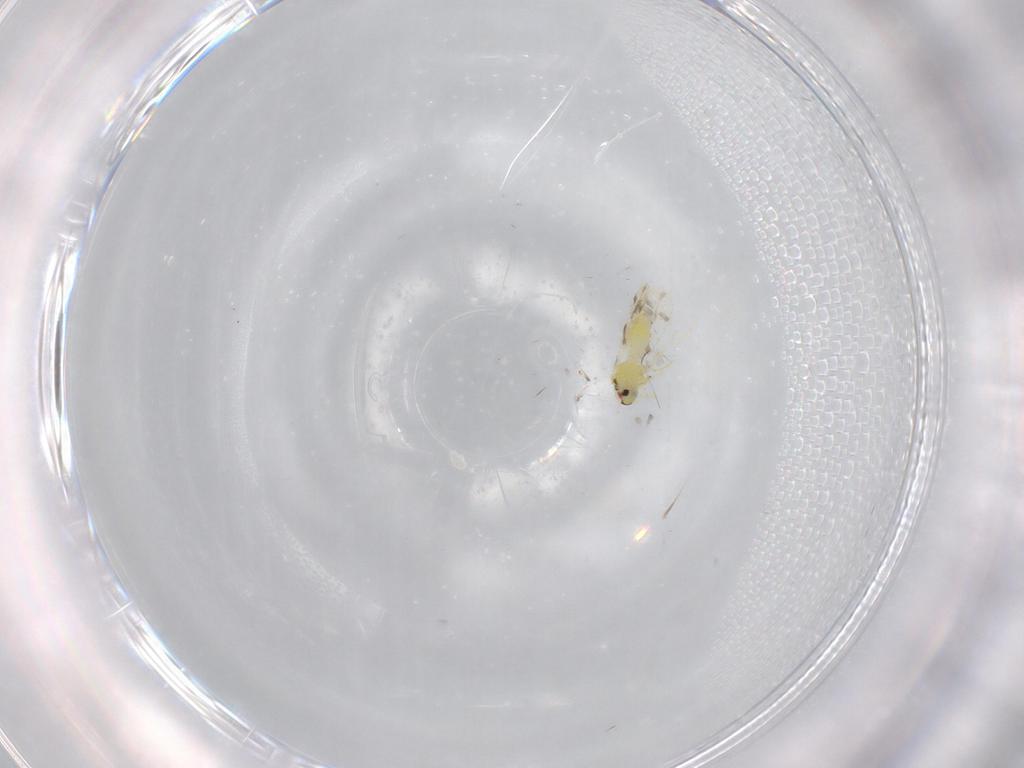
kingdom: Animalia
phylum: Arthropoda
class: Insecta
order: Hemiptera
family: Aleyrodidae
